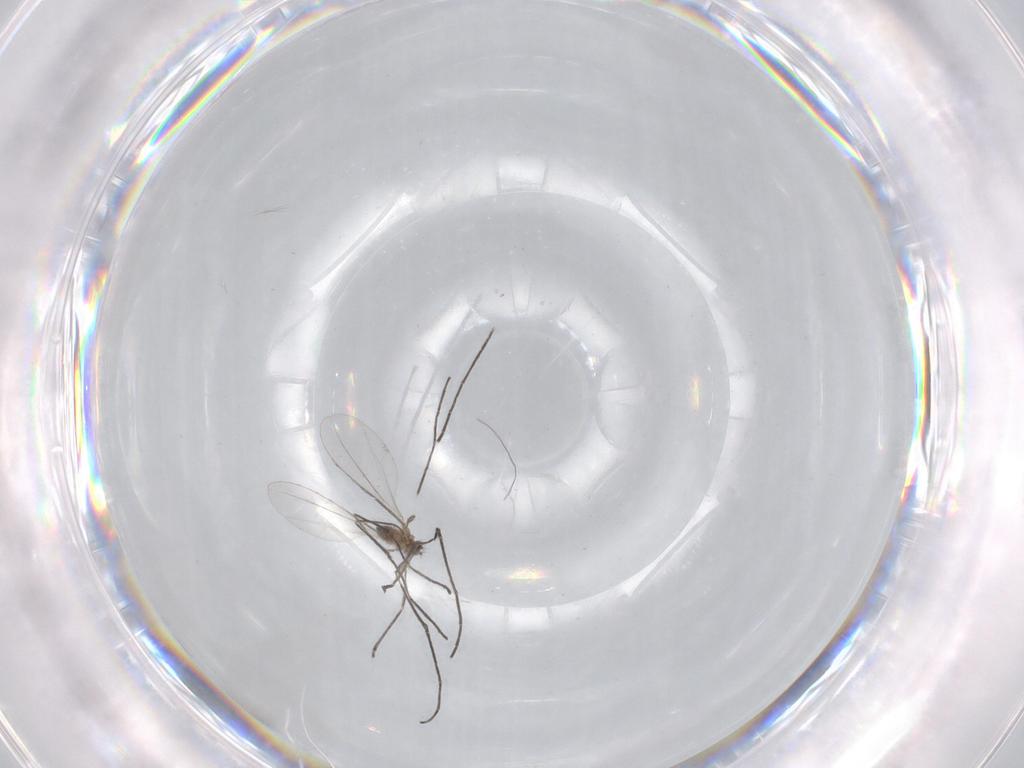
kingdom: Animalia
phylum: Arthropoda
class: Insecta
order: Diptera
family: Cecidomyiidae
